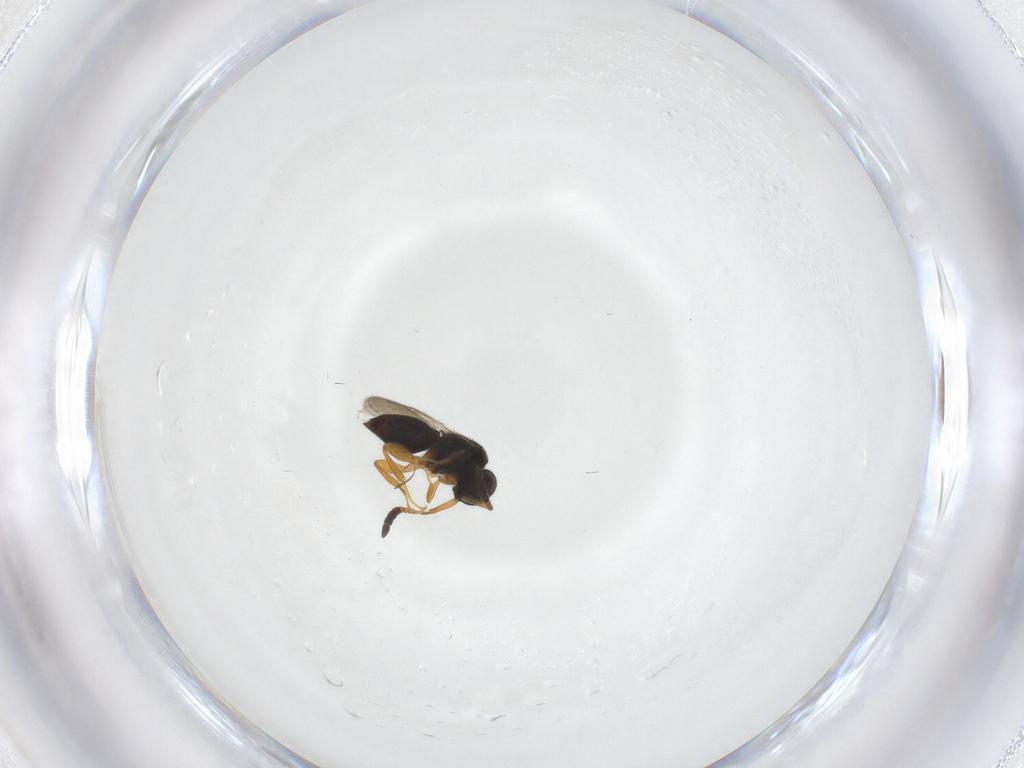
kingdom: Animalia
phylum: Arthropoda
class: Insecta
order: Hymenoptera
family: Ceraphronidae
